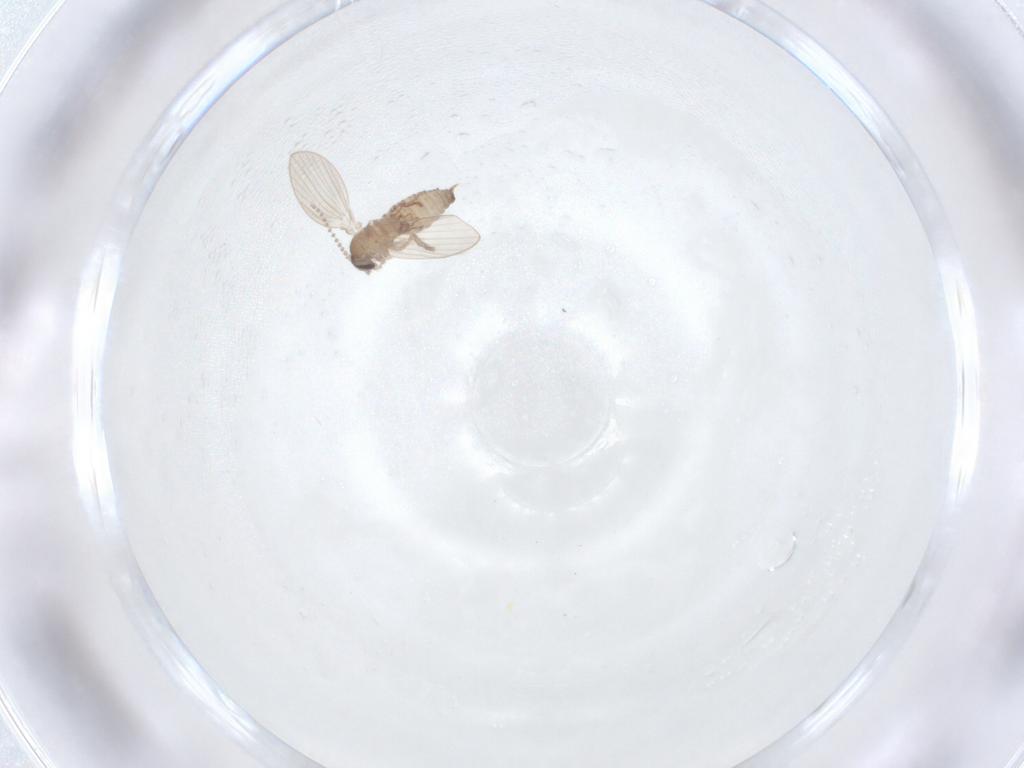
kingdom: Animalia
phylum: Arthropoda
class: Insecta
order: Diptera
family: Psychodidae
